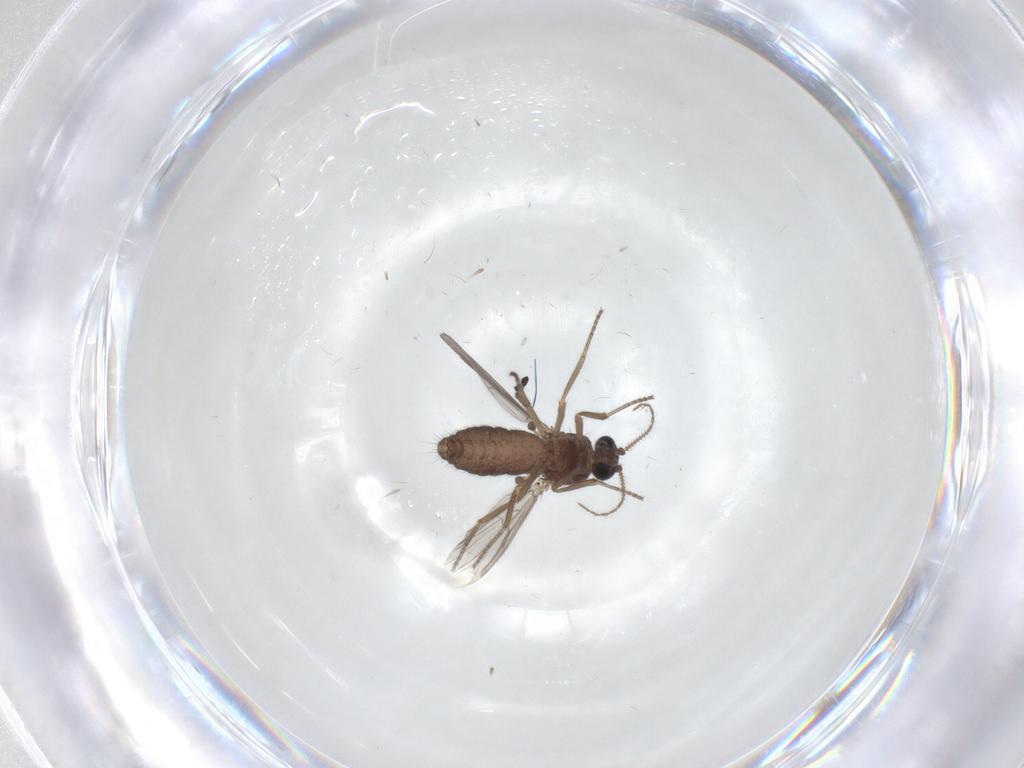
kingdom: Animalia
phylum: Arthropoda
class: Insecta
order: Diptera
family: Ceratopogonidae
